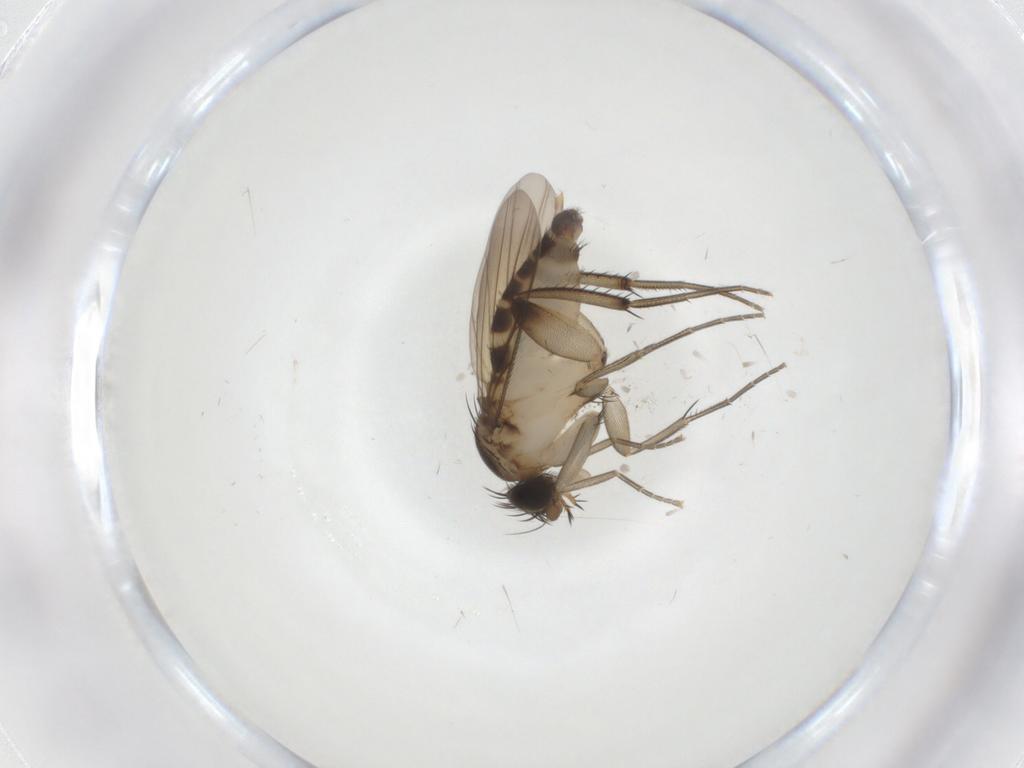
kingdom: Animalia
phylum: Arthropoda
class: Insecta
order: Diptera
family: Phoridae
